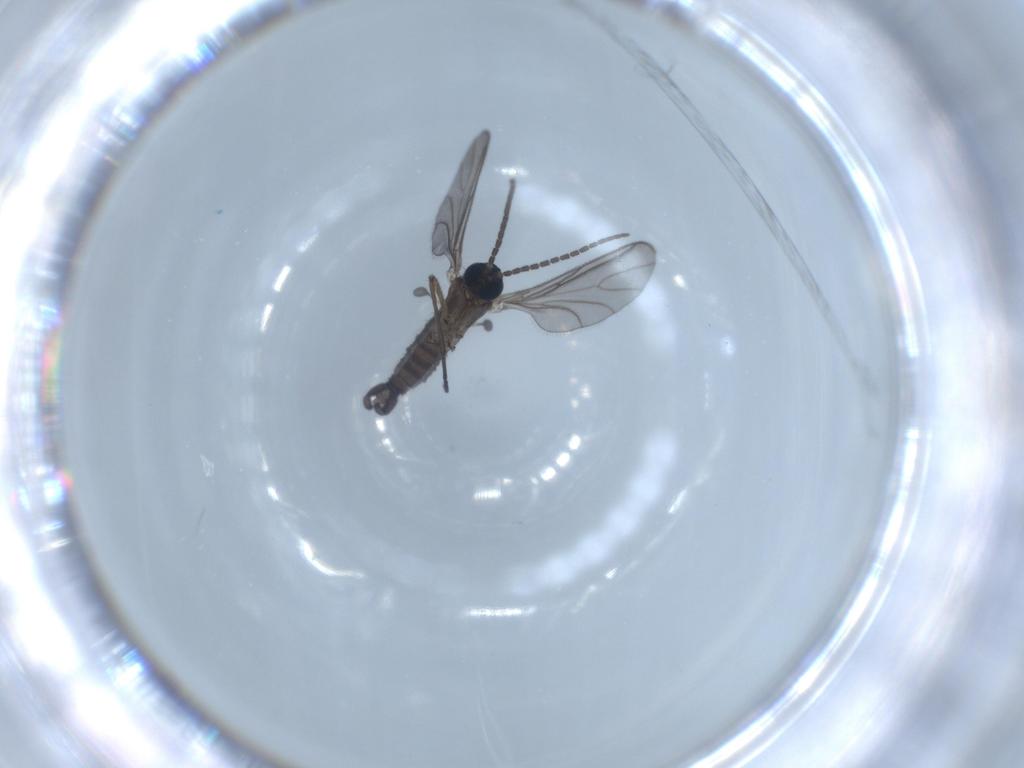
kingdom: Animalia
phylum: Arthropoda
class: Insecta
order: Diptera
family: Sciaridae
